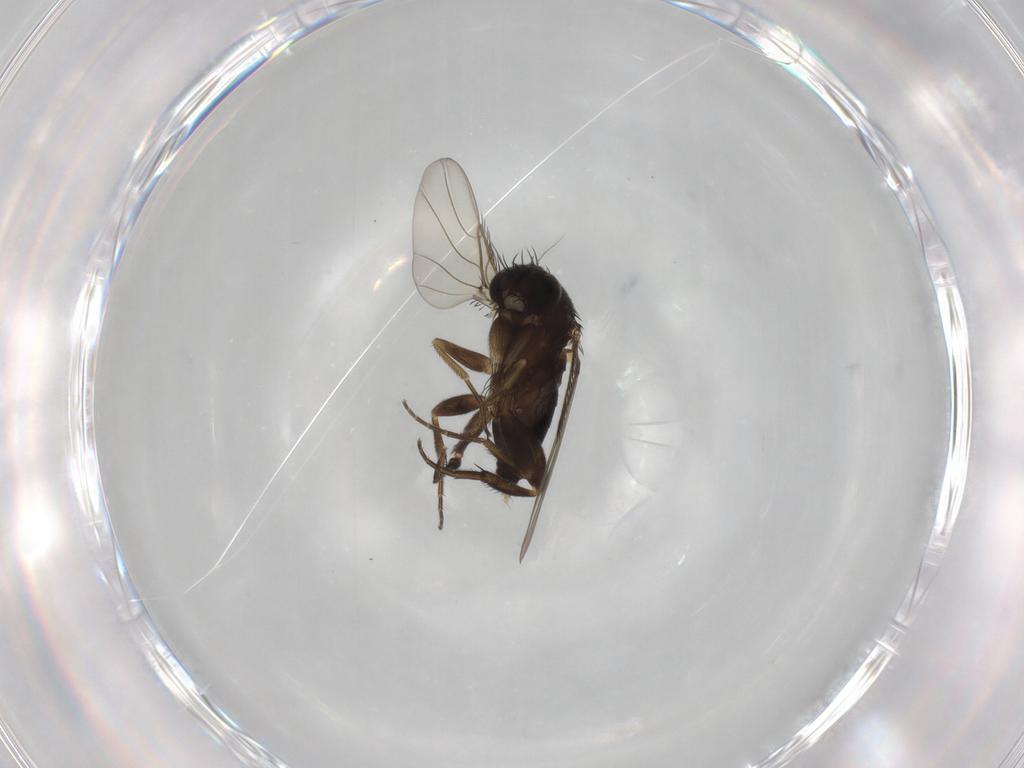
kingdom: Animalia
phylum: Arthropoda
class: Insecta
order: Diptera
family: Phoridae
